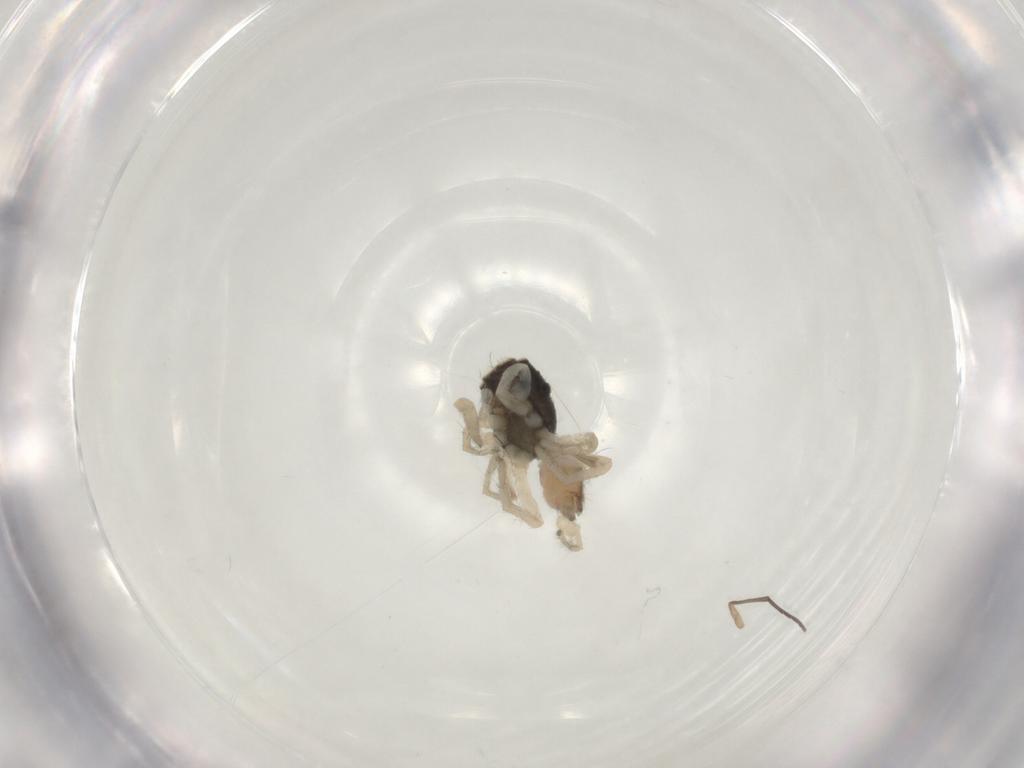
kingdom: Animalia
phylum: Arthropoda
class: Arachnida
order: Araneae
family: Salticidae
